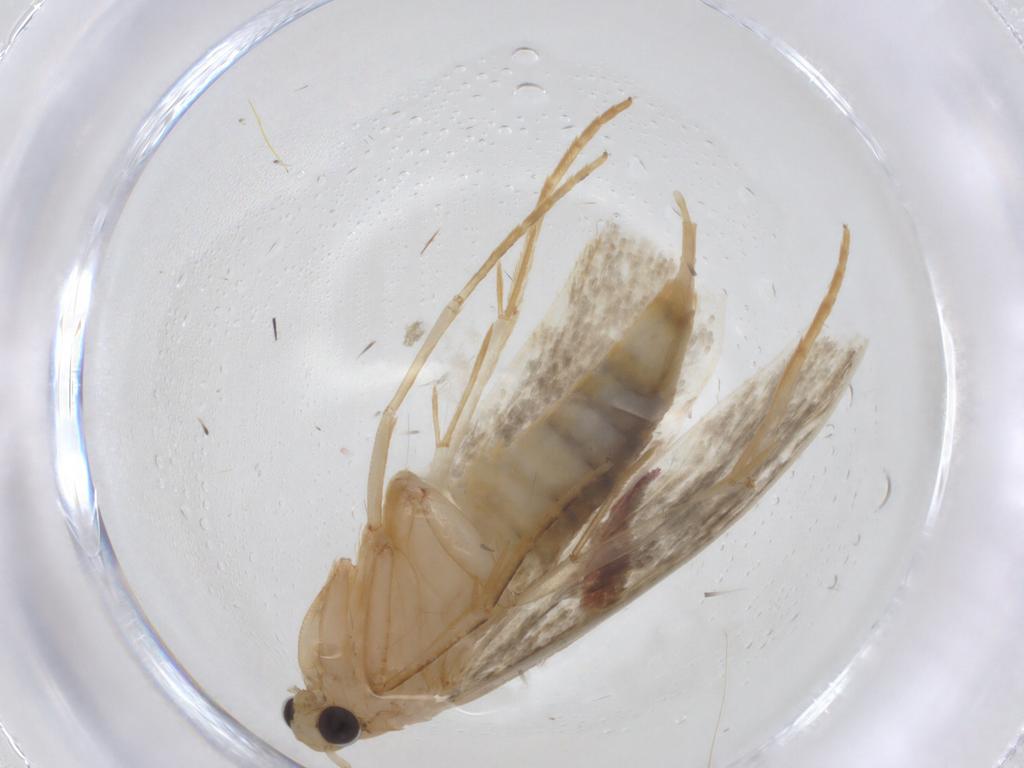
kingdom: Animalia
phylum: Arthropoda
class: Insecta
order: Lepidoptera
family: Tineidae
